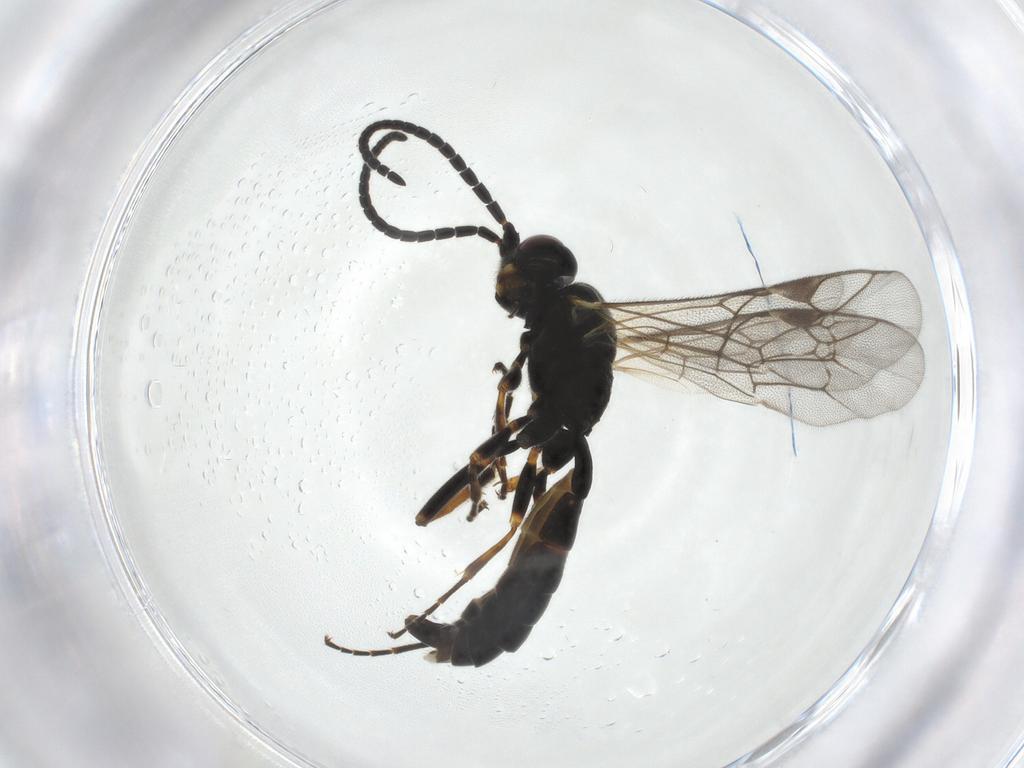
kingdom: Animalia
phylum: Arthropoda
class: Insecta
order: Hymenoptera
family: Ichneumonidae
